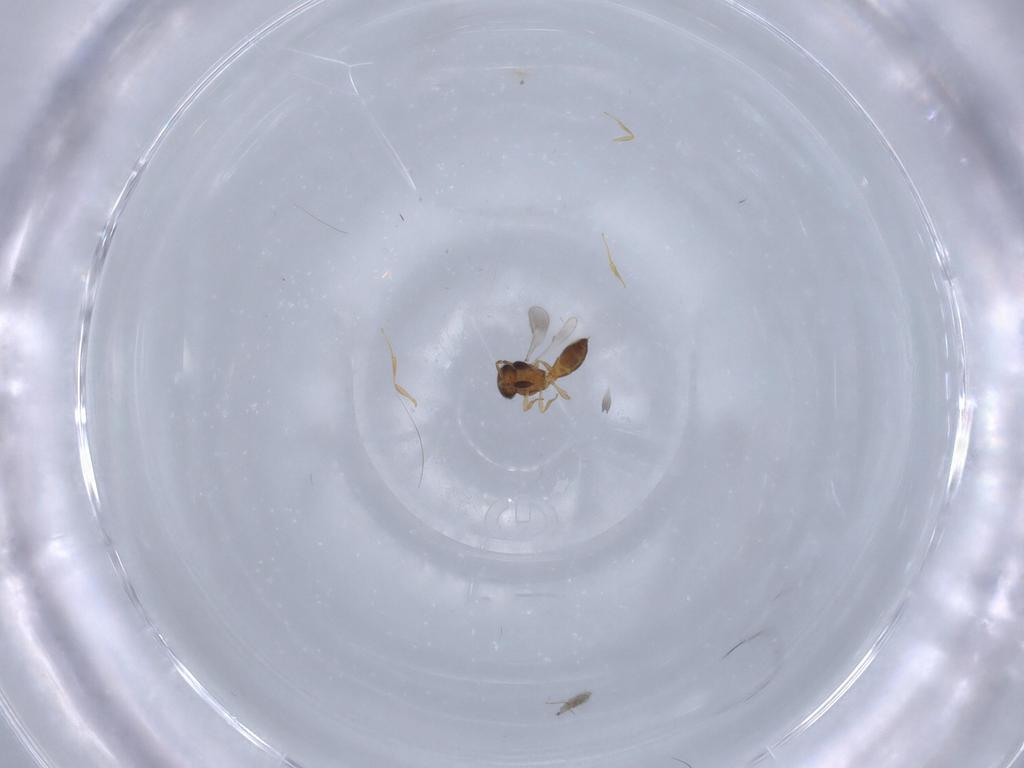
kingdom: Animalia
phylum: Arthropoda
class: Insecta
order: Hymenoptera
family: Scelionidae
